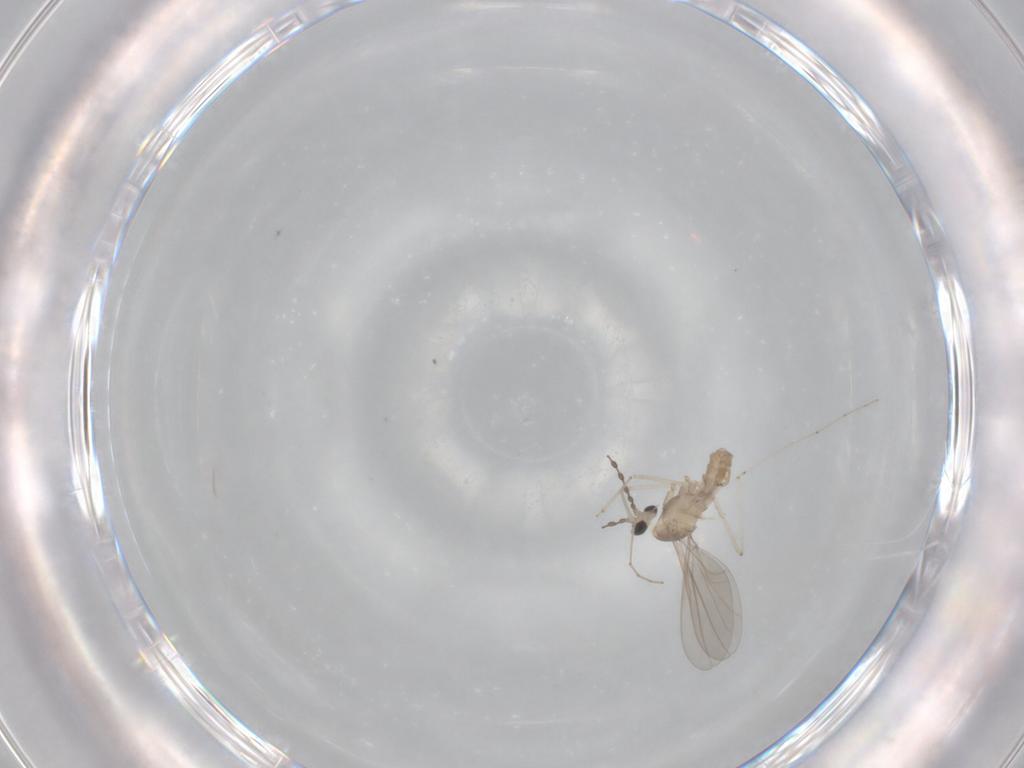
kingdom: Animalia
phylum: Arthropoda
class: Insecta
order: Diptera
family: Cecidomyiidae
